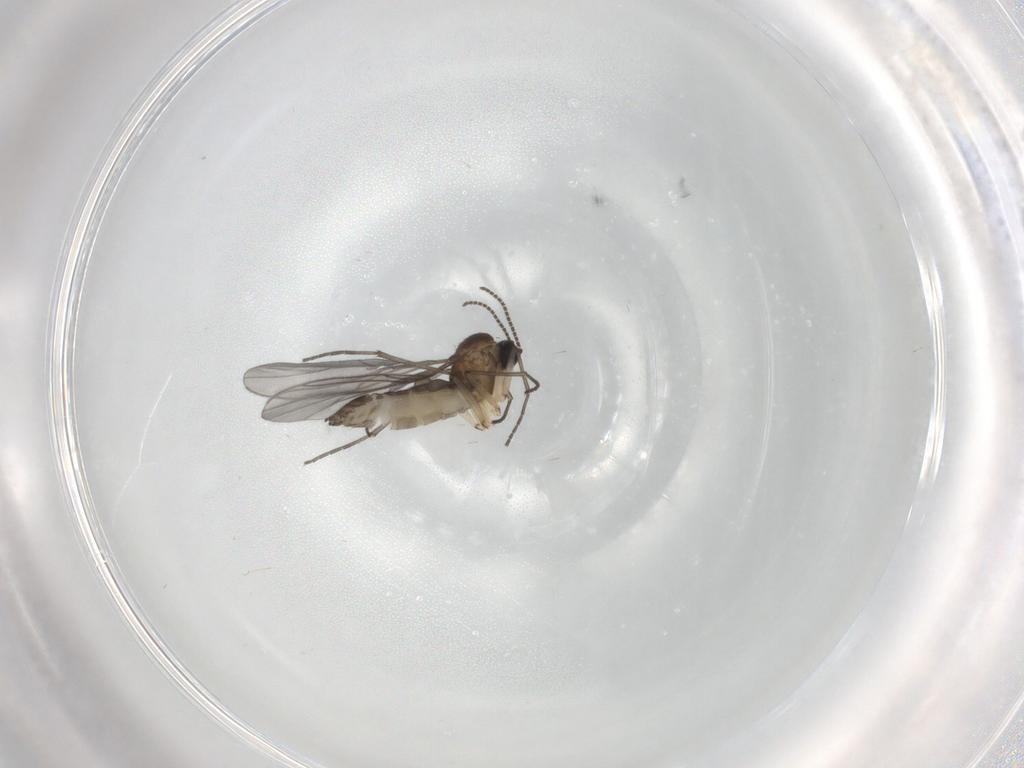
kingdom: Animalia
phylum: Arthropoda
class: Insecta
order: Diptera
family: Sciaridae
